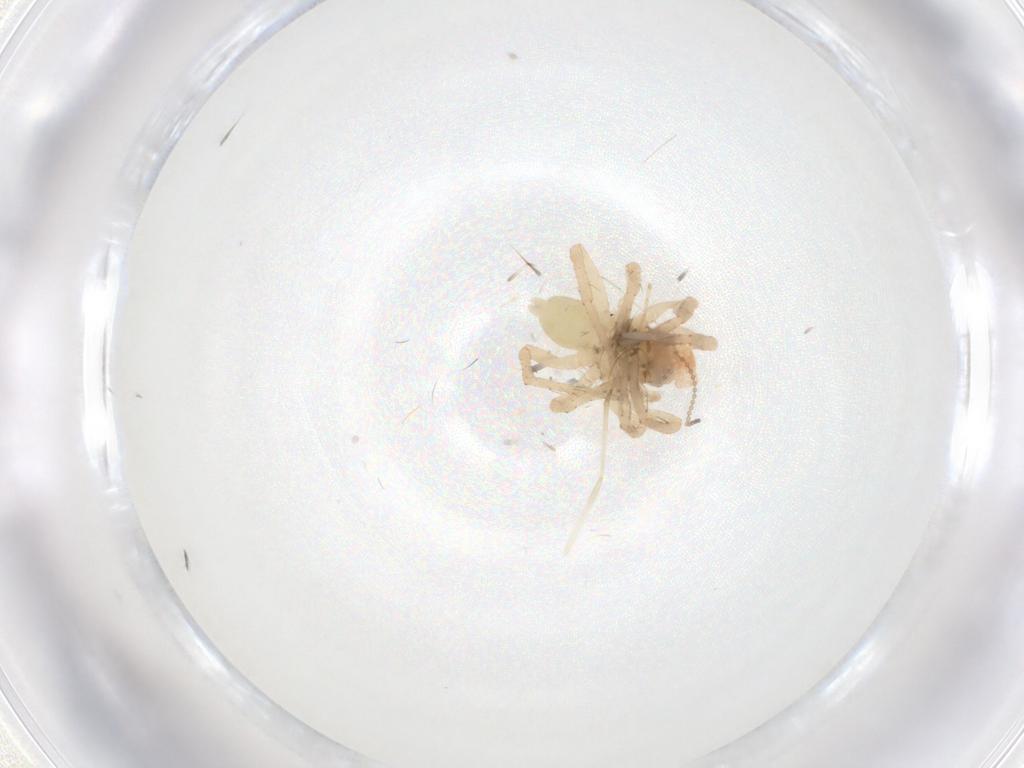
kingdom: Animalia
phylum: Arthropoda
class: Arachnida
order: Araneae
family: Anyphaenidae
